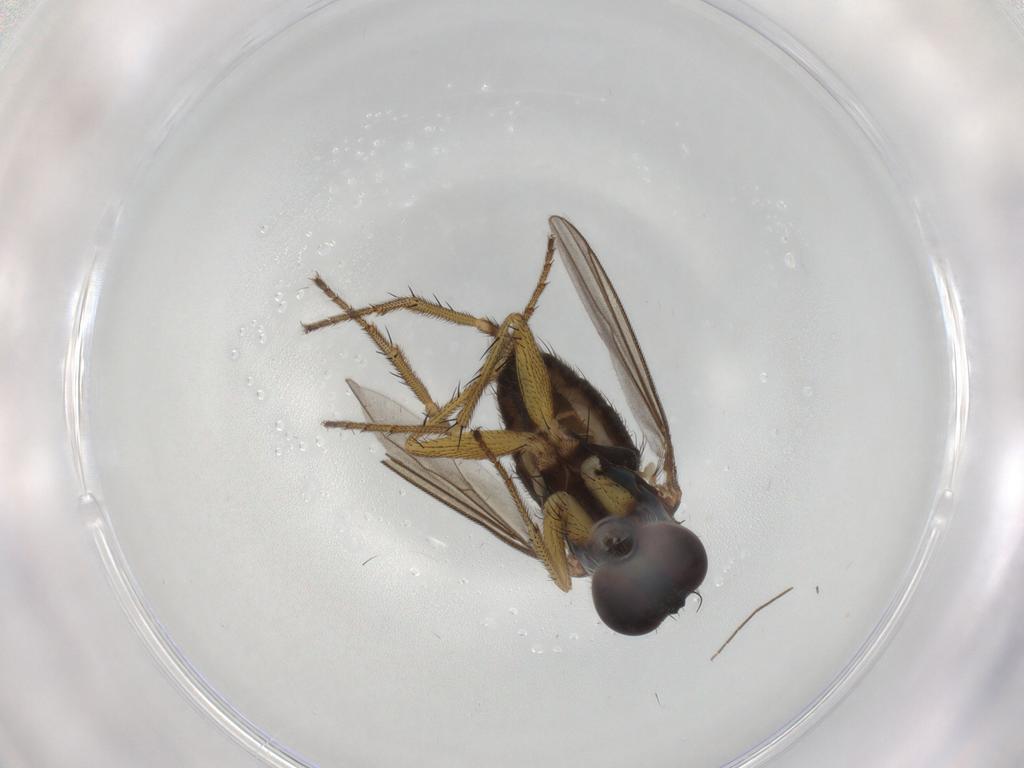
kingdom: Animalia
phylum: Arthropoda
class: Insecta
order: Diptera
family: Dolichopodidae
